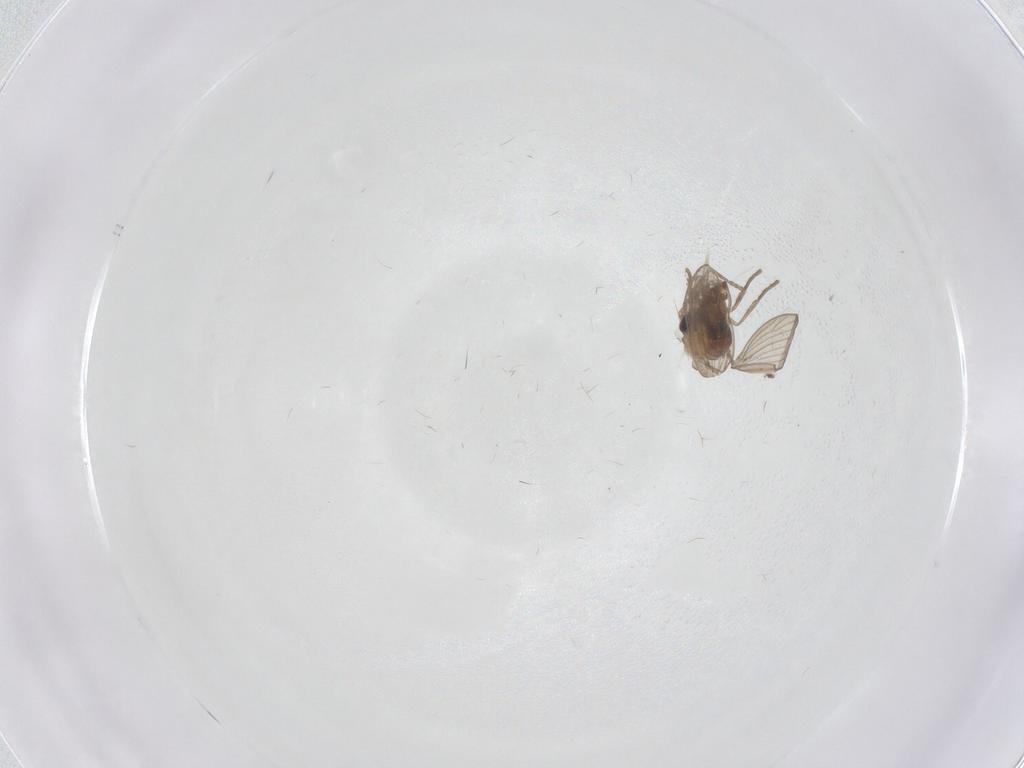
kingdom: Animalia
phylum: Arthropoda
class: Insecta
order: Diptera
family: Psychodidae
